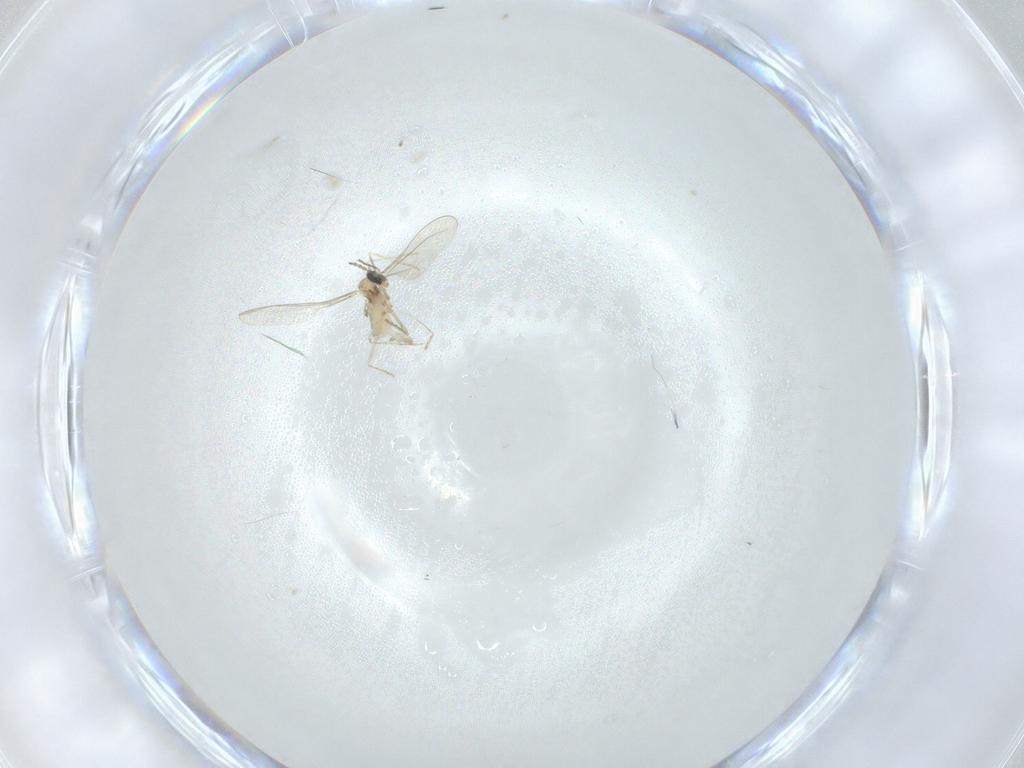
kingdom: Animalia
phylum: Arthropoda
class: Insecta
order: Diptera
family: Cecidomyiidae
